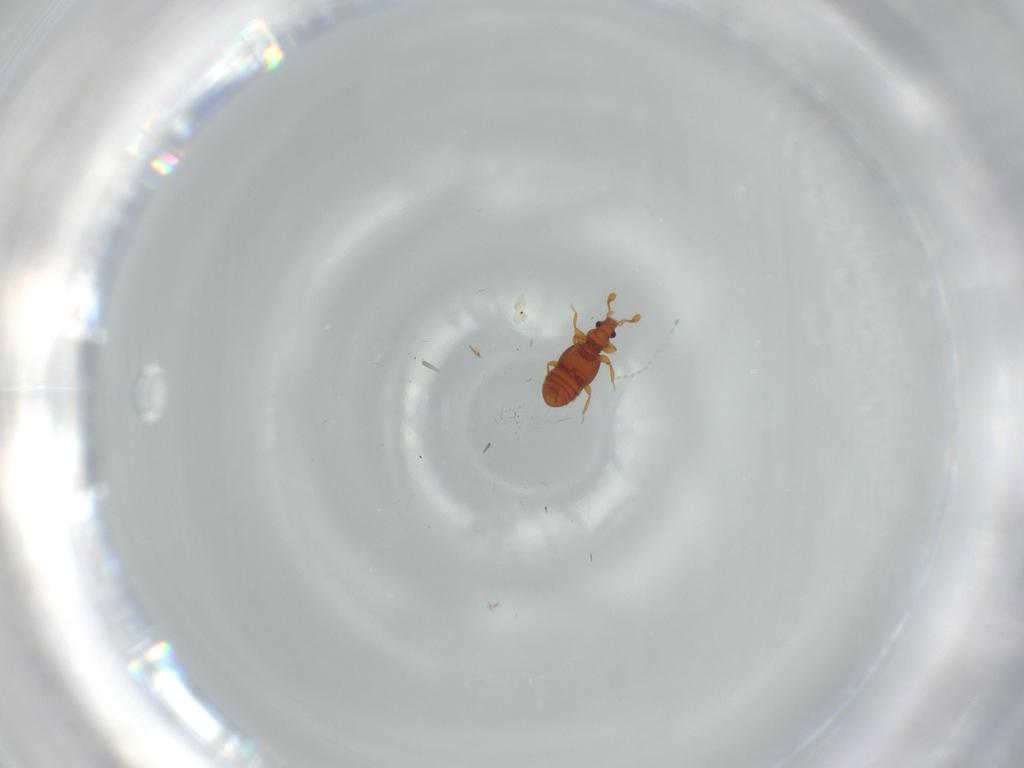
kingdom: Animalia
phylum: Arthropoda
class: Insecta
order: Coleoptera
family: Staphylinidae
